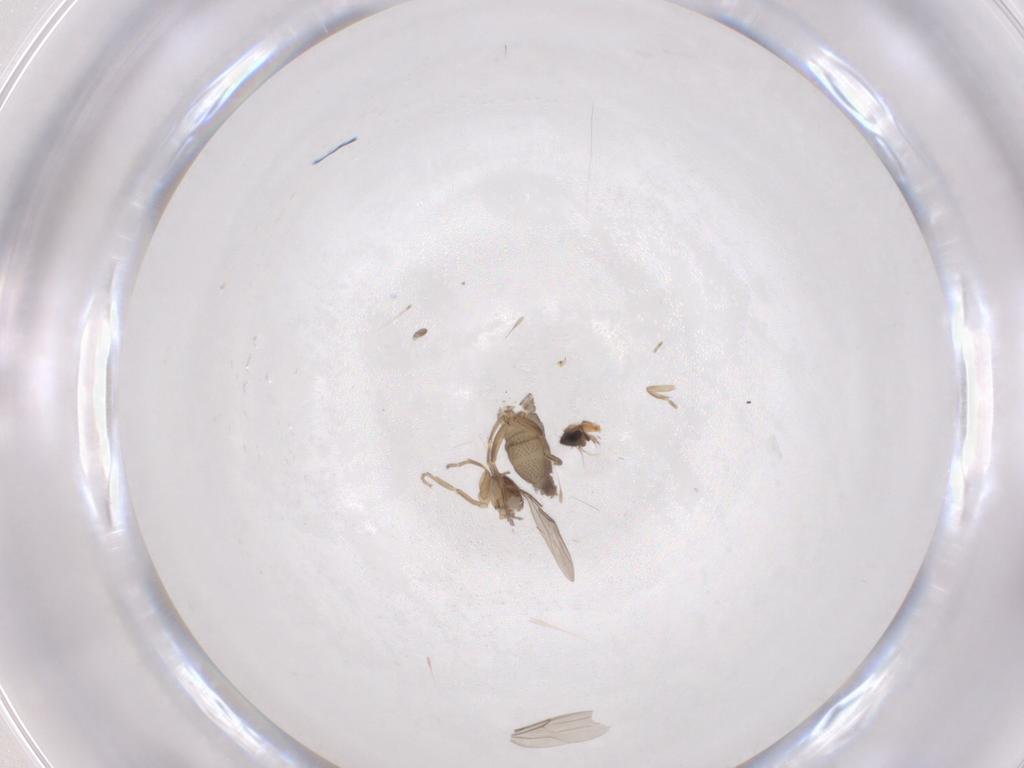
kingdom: Animalia
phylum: Arthropoda
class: Insecta
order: Diptera
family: Phoridae
